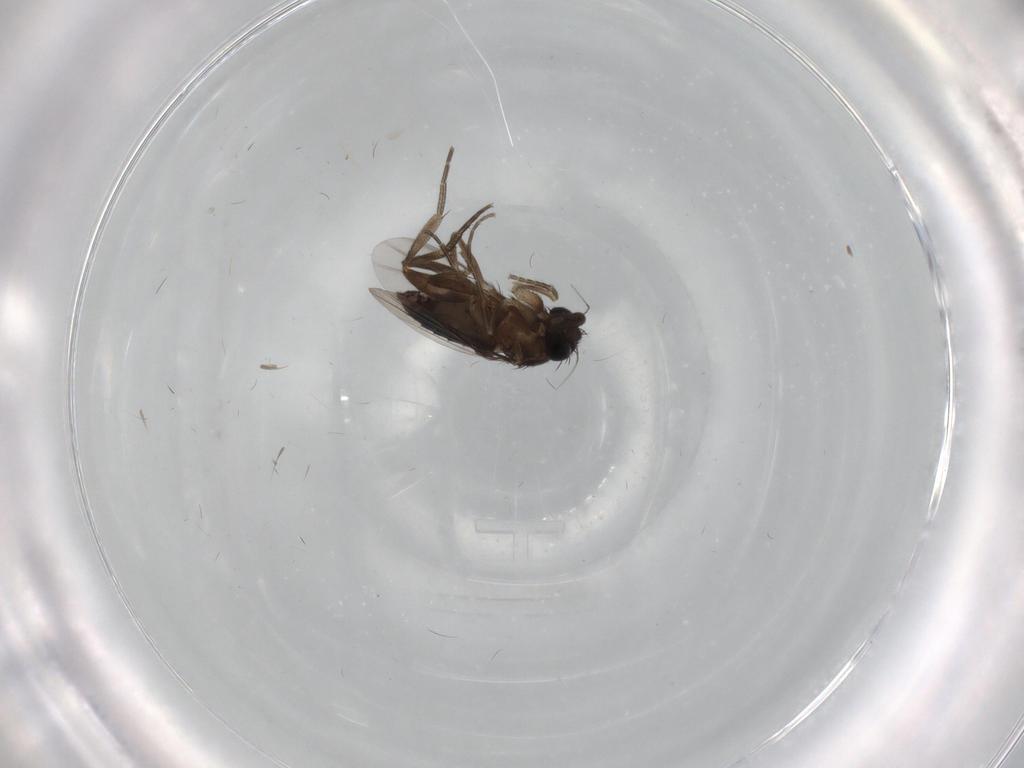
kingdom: Animalia
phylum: Arthropoda
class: Insecta
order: Diptera
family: Phoridae
